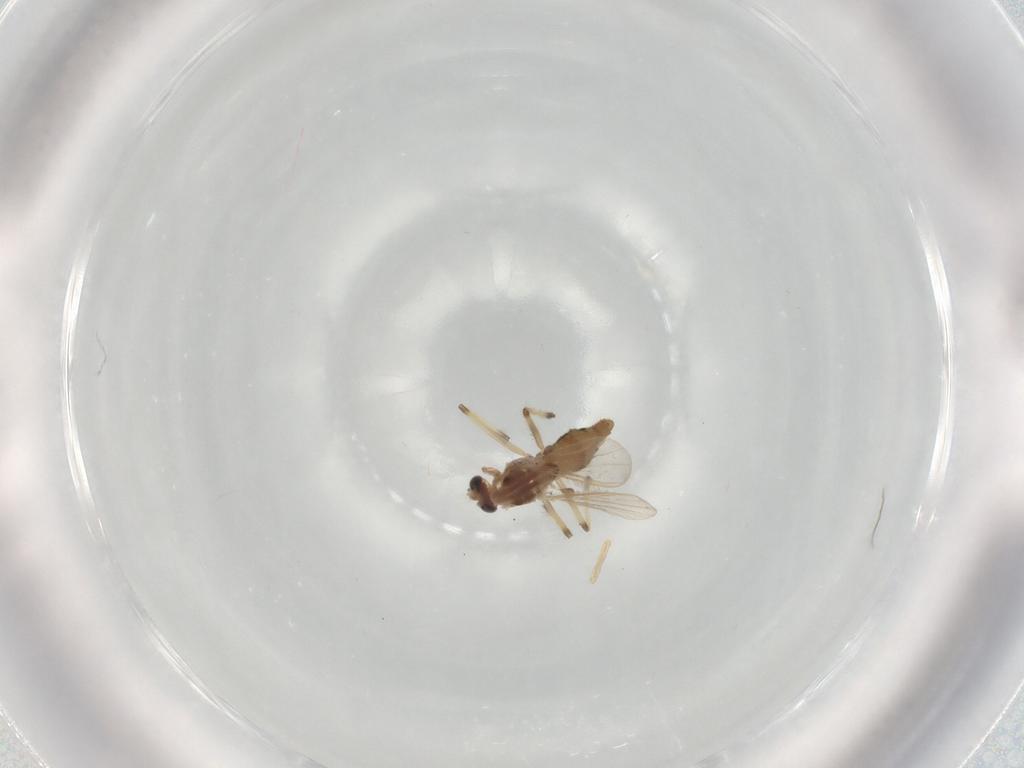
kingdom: Animalia
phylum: Arthropoda
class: Insecta
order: Diptera
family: Chironomidae
